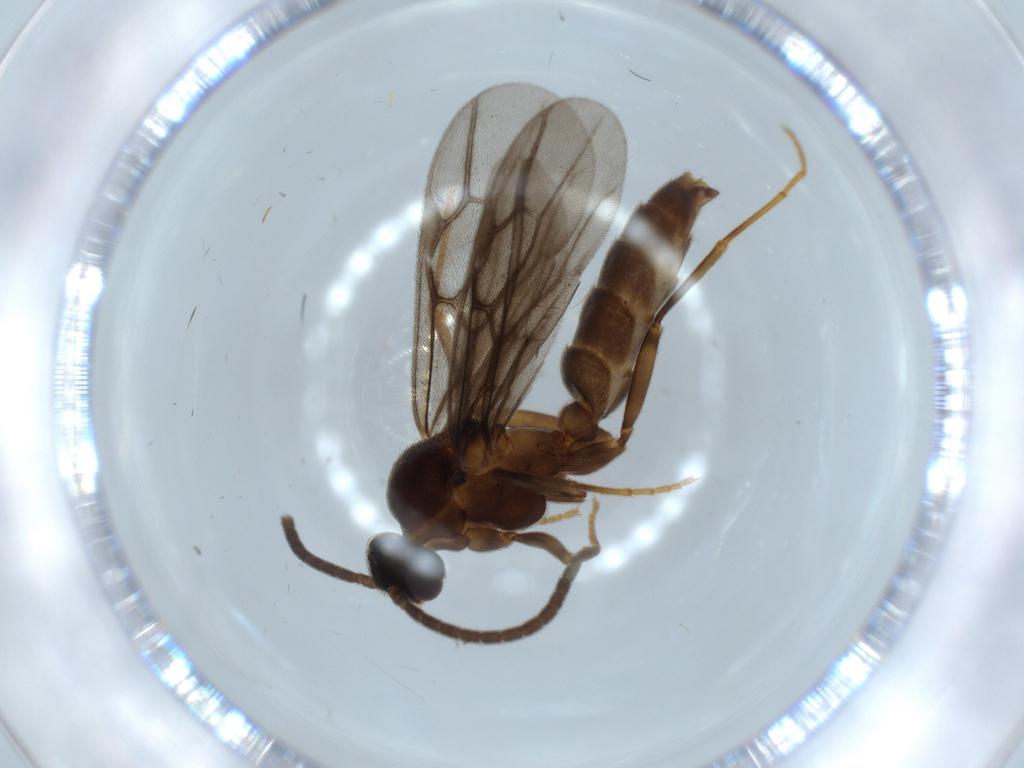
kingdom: Animalia
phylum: Arthropoda
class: Insecta
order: Hymenoptera
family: Formicidae
